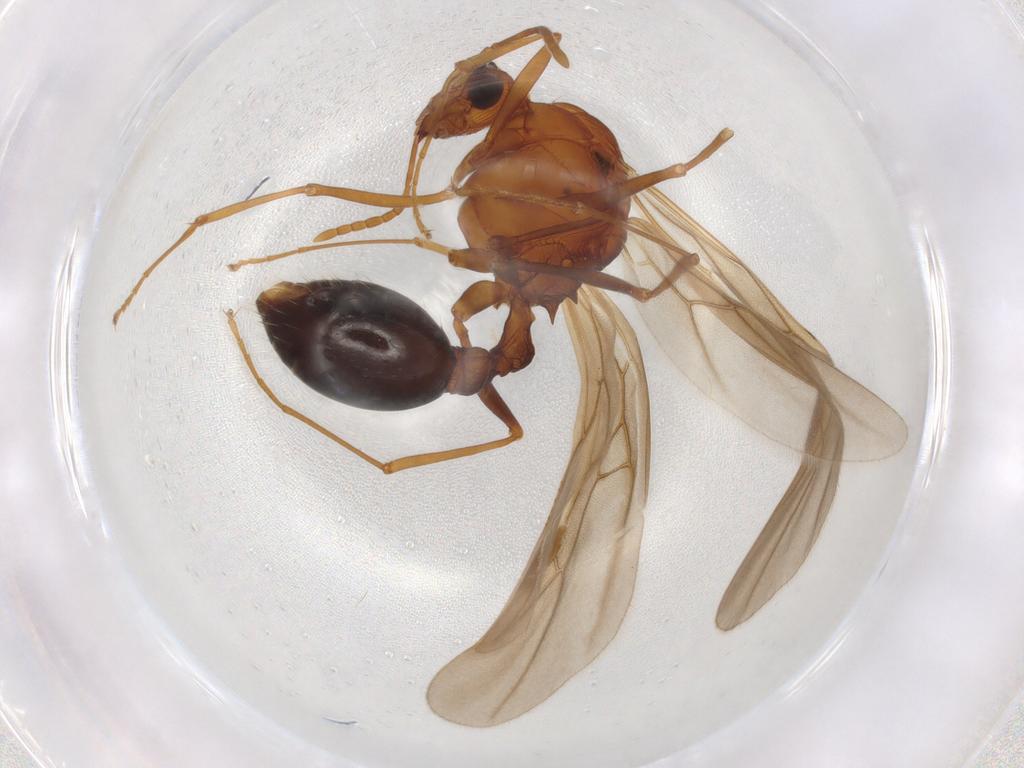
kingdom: Animalia
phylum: Arthropoda
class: Insecta
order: Hymenoptera
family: Formicidae
